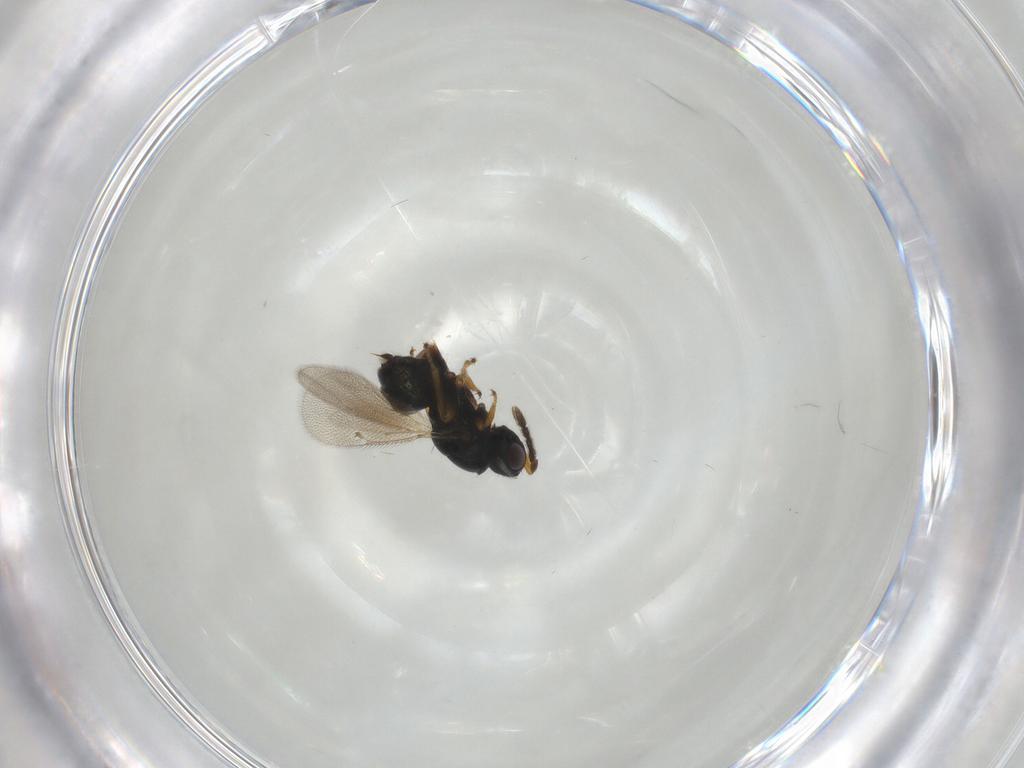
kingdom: Animalia
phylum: Arthropoda
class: Insecta
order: Hymenoptera
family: Eulophidae
